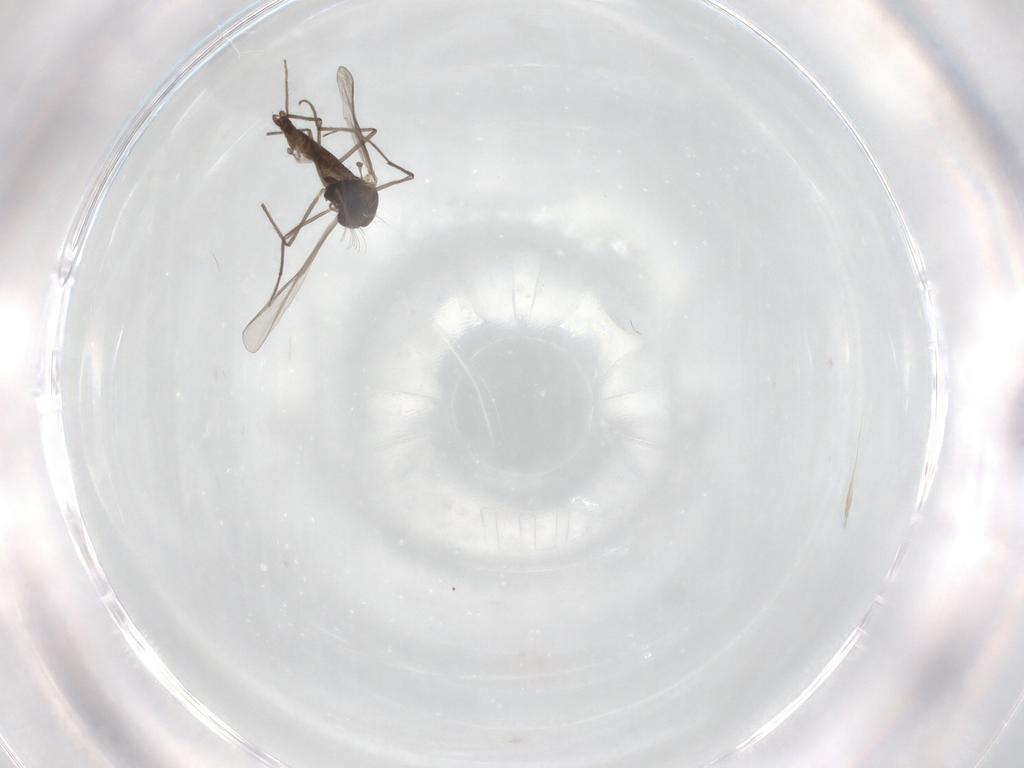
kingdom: Animalia
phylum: Arthropoda
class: Insecta
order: Diptera
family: Chironomidae
